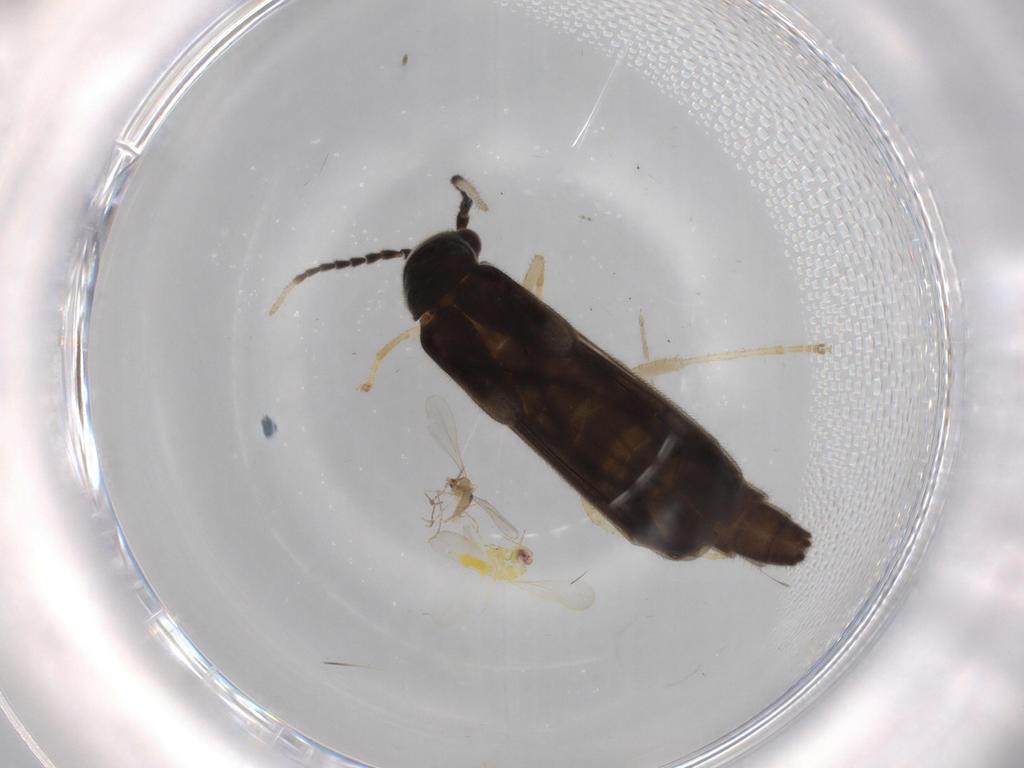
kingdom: Animalia
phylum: Arthropoda
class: Insecta
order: Coleoptera
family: Cantharidae
